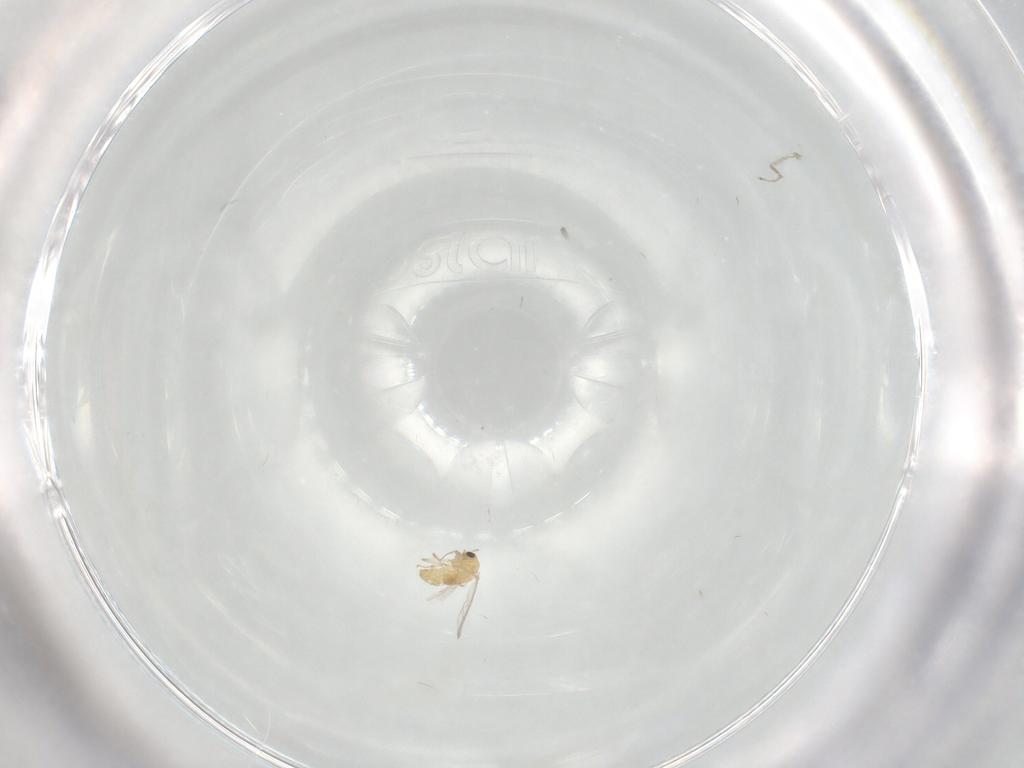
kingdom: Animalia
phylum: Arthropoda
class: Insecta
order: Diptera
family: Cecidomyiidae
